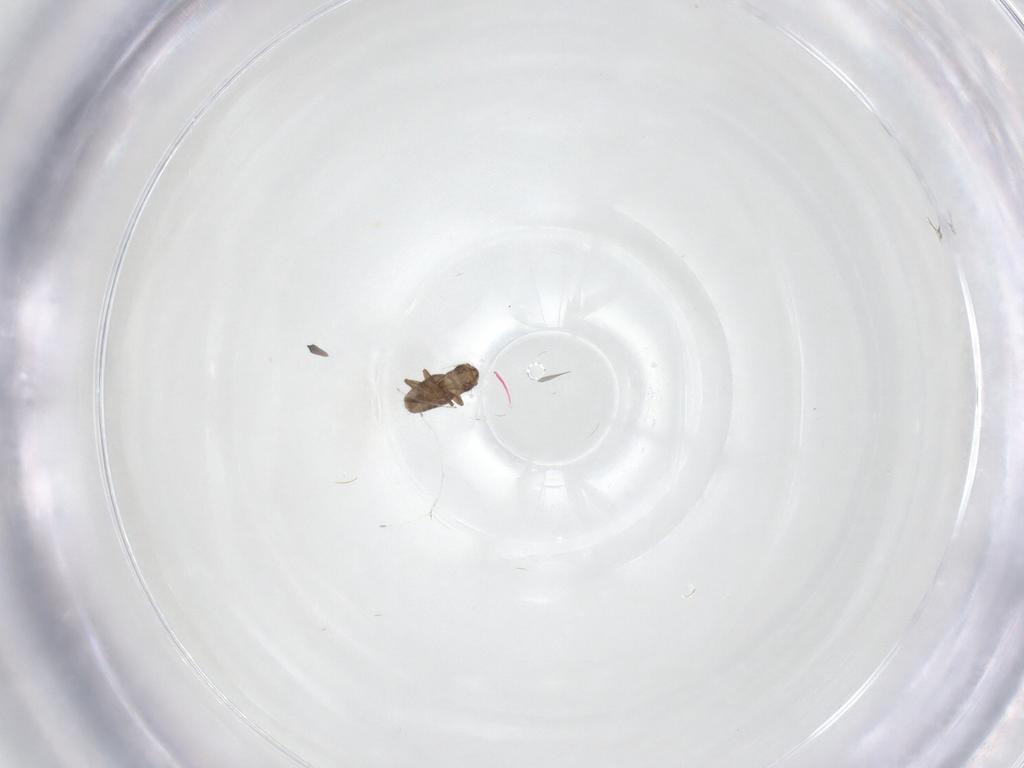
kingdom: Animalia
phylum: Arthropoda
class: Insecta
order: Diptera
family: Cecidomyiidae
